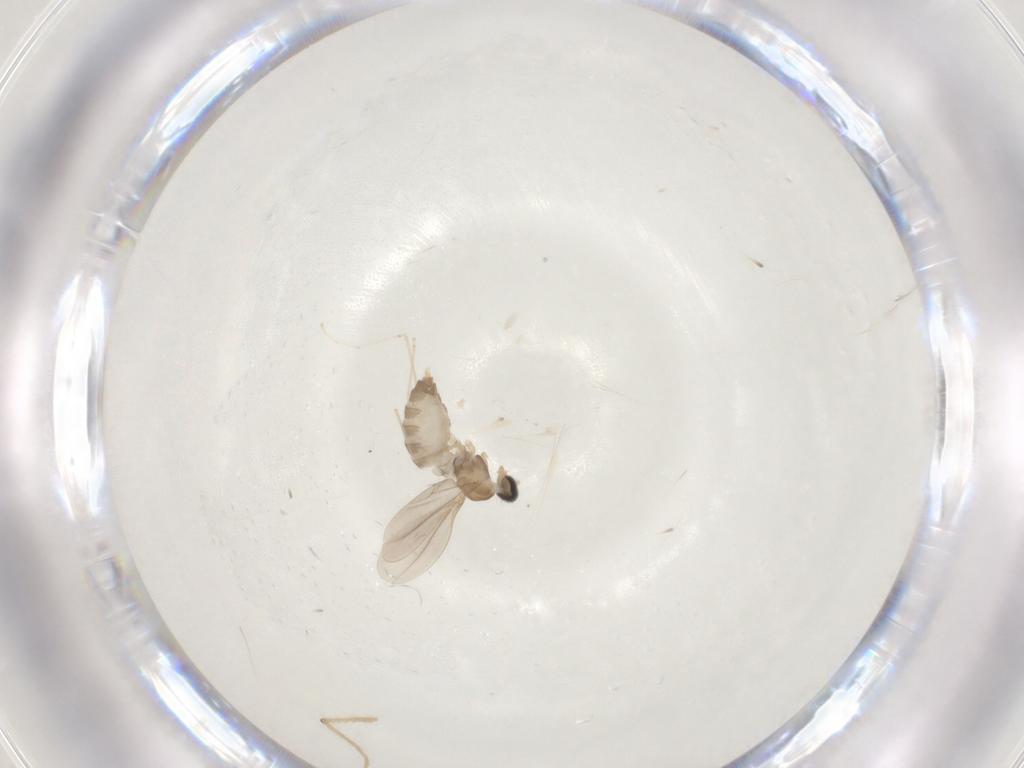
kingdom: Animalia
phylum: Arthropoda
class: Insecta
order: Diptera
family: Cecidomyiidae
